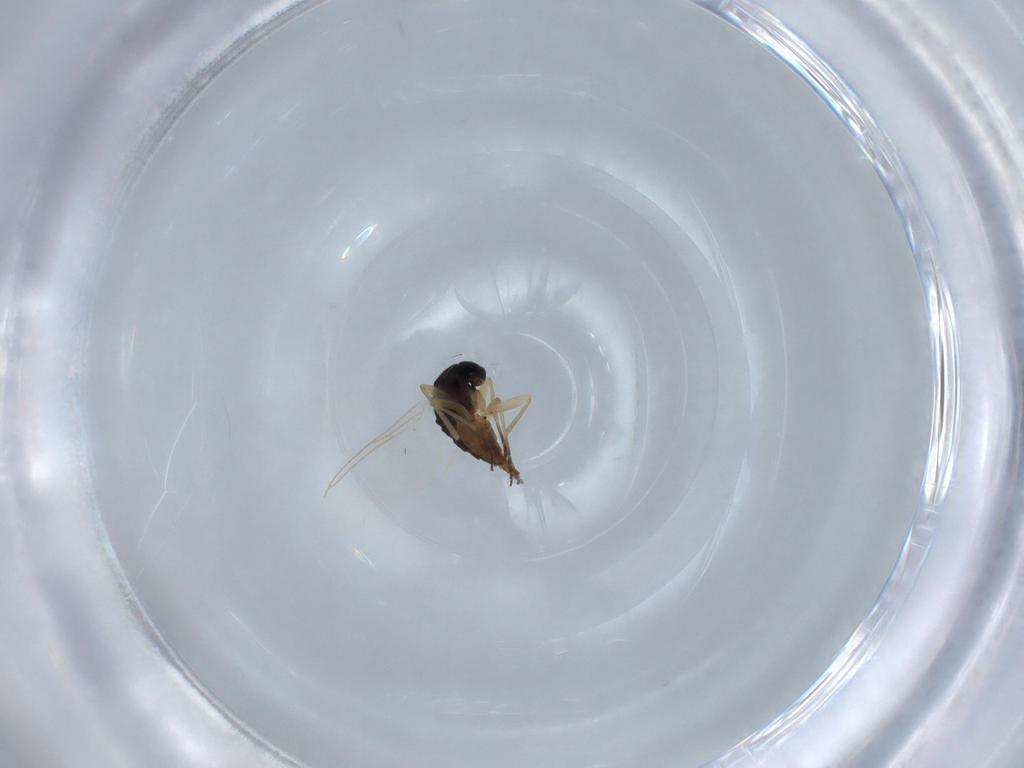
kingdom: Animalia
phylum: Arthropoda
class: Insecta
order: Diptera
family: Sciaridae
